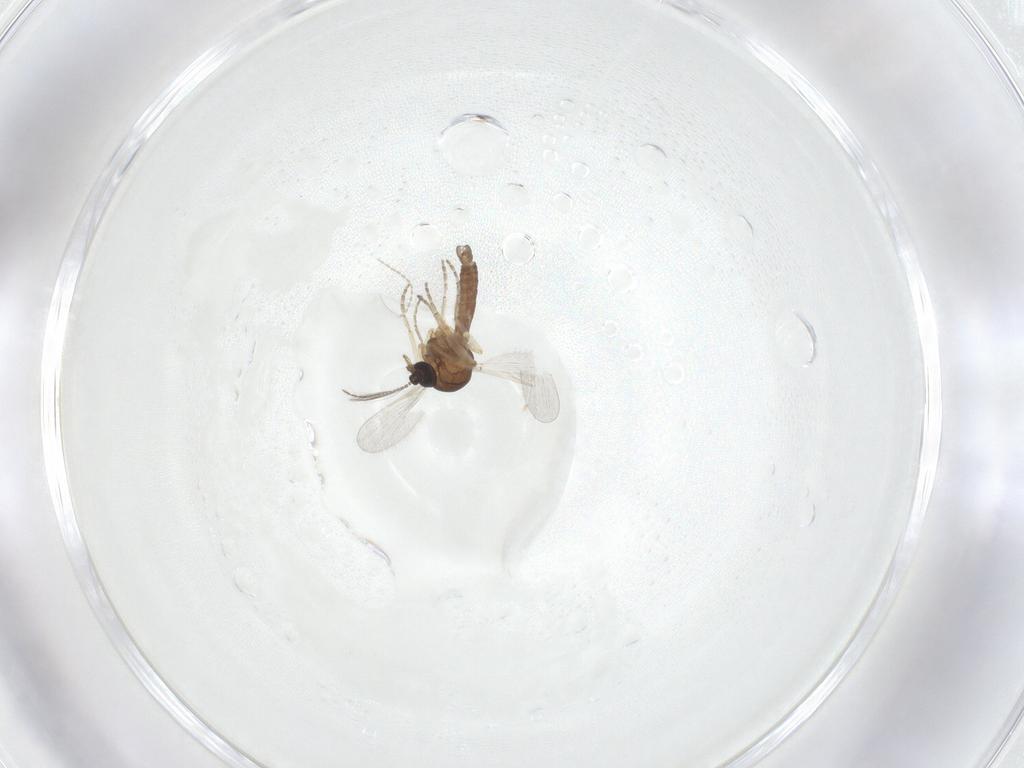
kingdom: Animalia
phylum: Arthropoda
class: Insecta
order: Diptera
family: Ceratopogonidae
